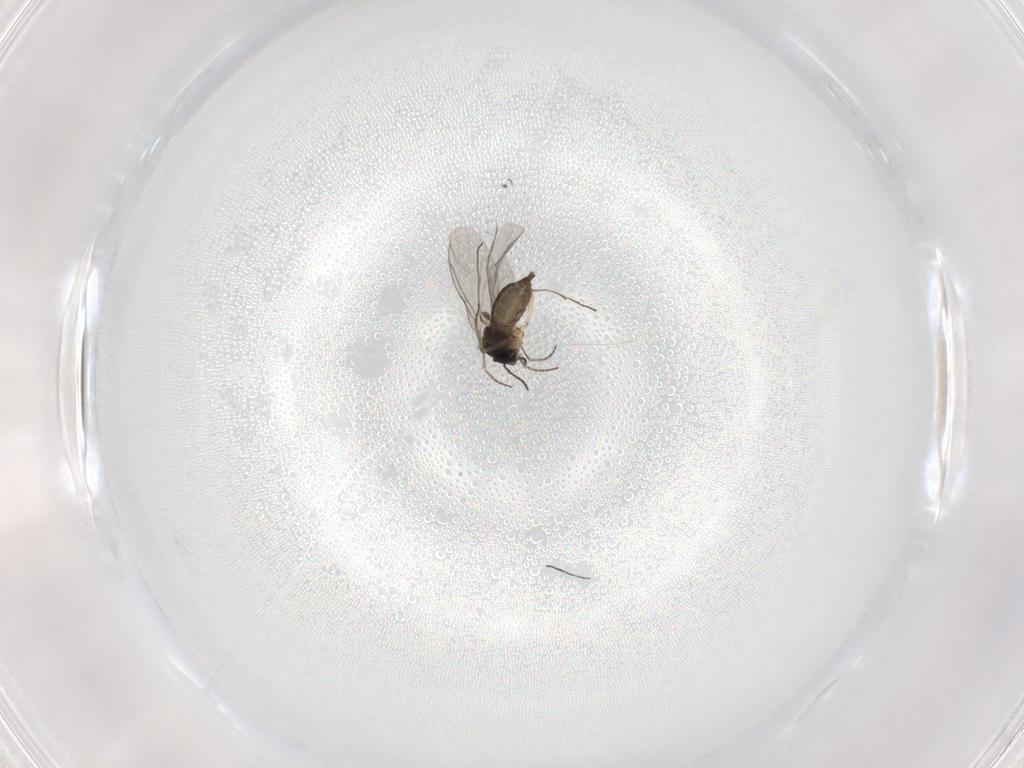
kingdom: Animalia
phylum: Arthropoda
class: Insecta
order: Diptera
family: Sciaridae
